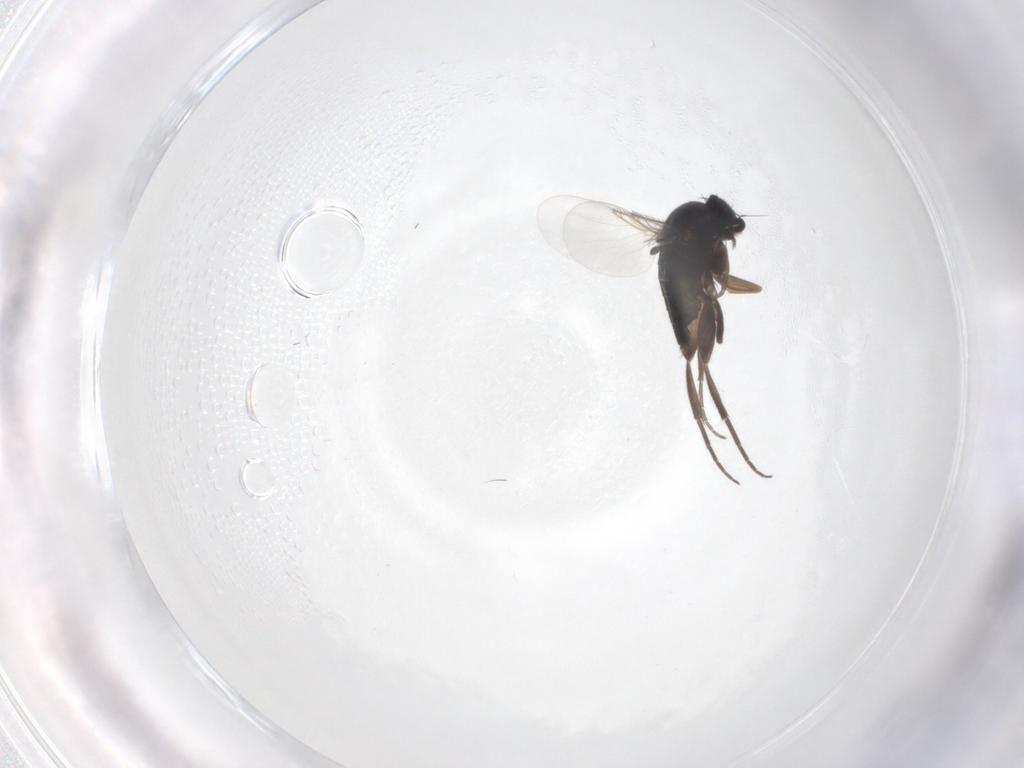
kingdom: Animalia
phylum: Arthropoda
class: Insecta
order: Diptera
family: Phoridae
